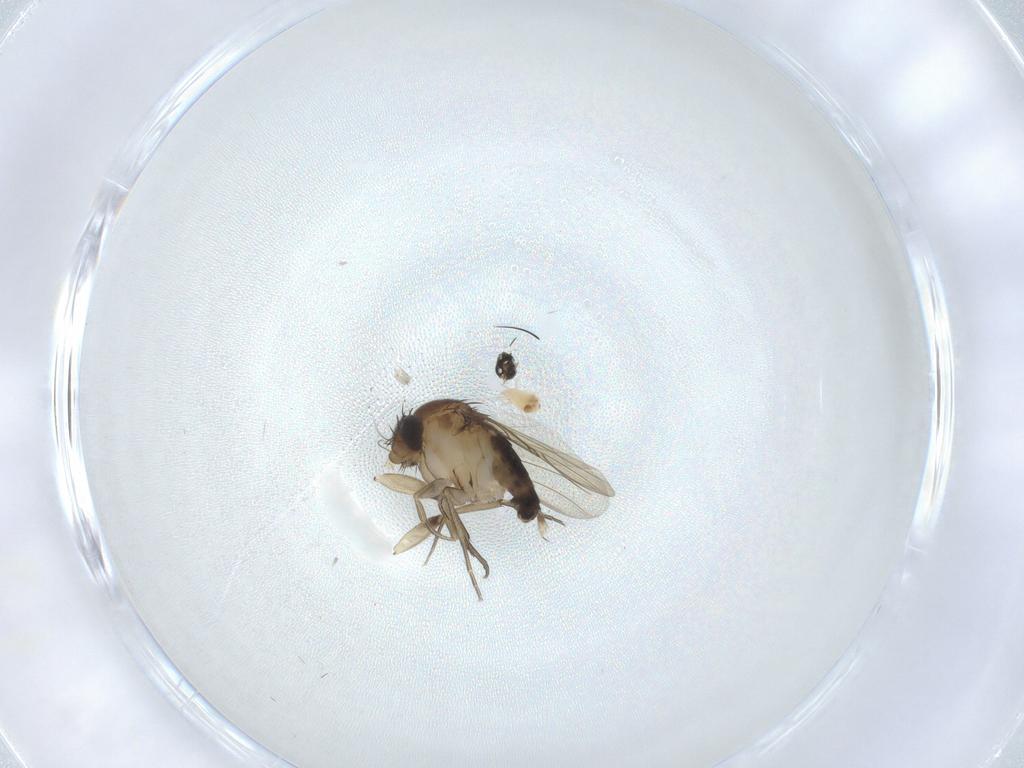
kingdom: Animalia
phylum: Arthropoda
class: Insecta
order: Diptera
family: Phoridae
